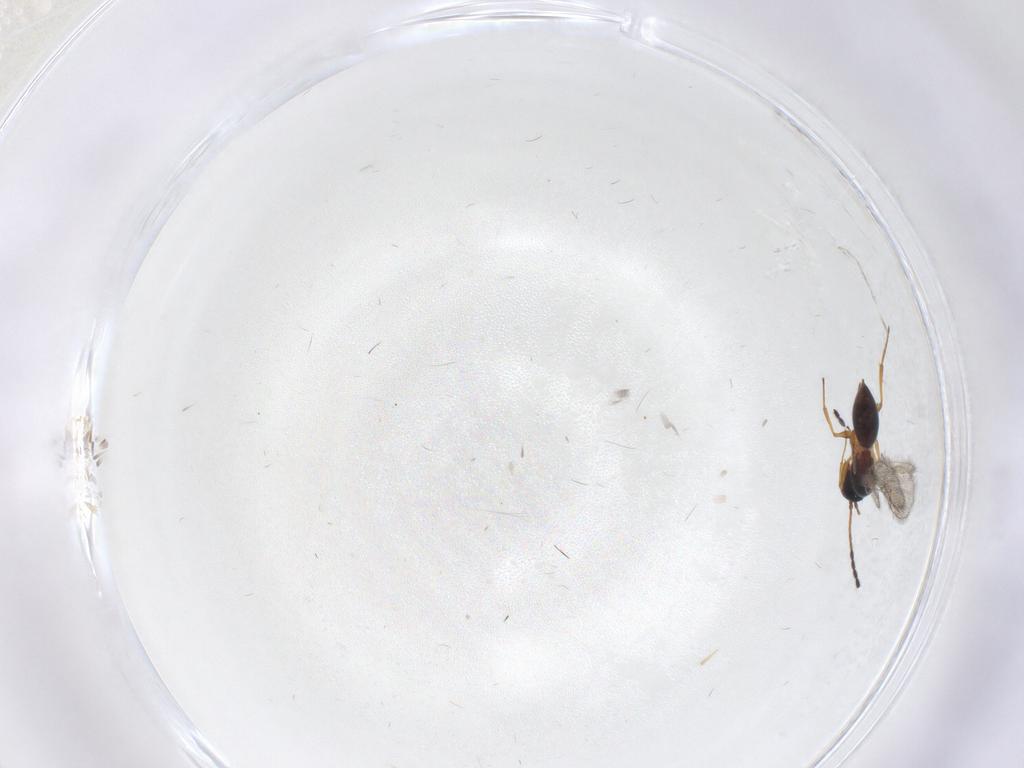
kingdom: Animalia
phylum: Arthropoda
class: Insecta
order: Hymenoptera
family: Figitidae
